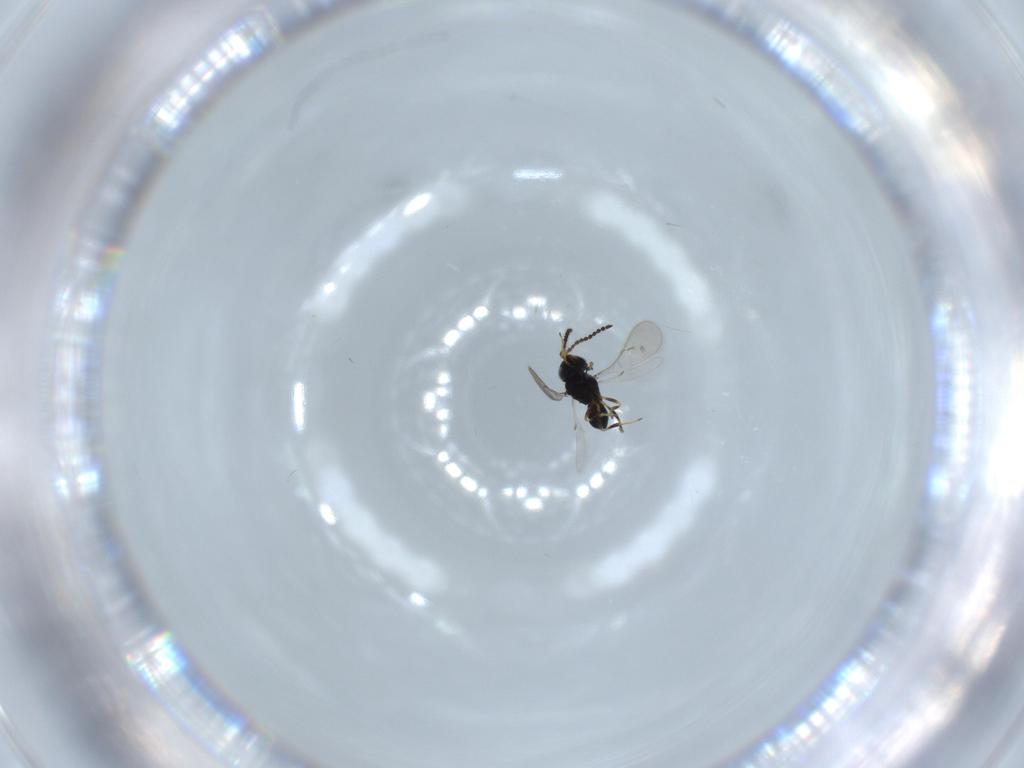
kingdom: Animalia
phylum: Arthropoda
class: Insecta
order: Hymenoptera
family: Scelionidae
